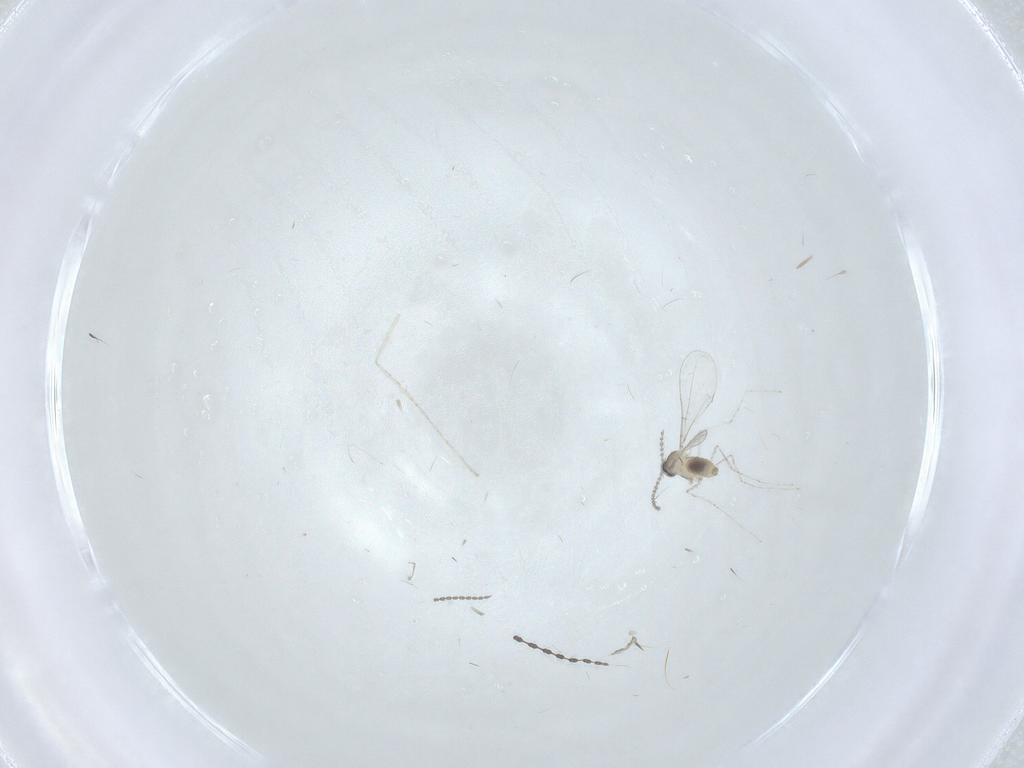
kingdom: Animalia
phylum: Arthropoda
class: Insecta
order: Diptera
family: Cecidomyiidae
